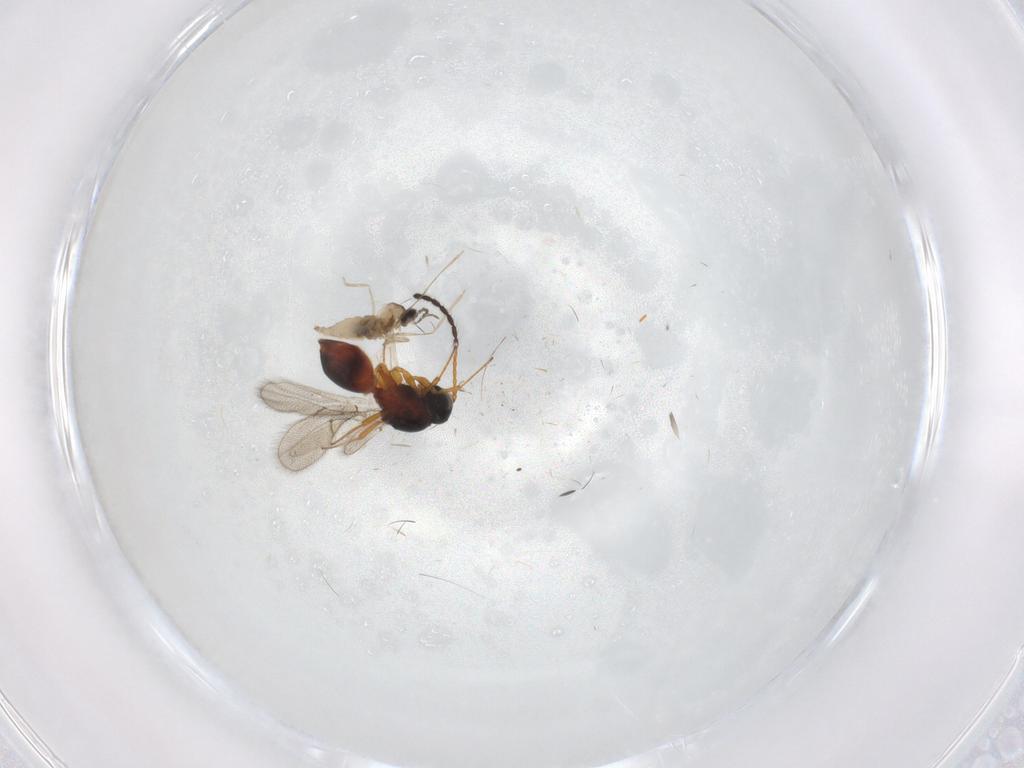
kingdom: Animalia
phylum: Arthropoda
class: Insecta
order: Diptera
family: Cecidomyiidae
